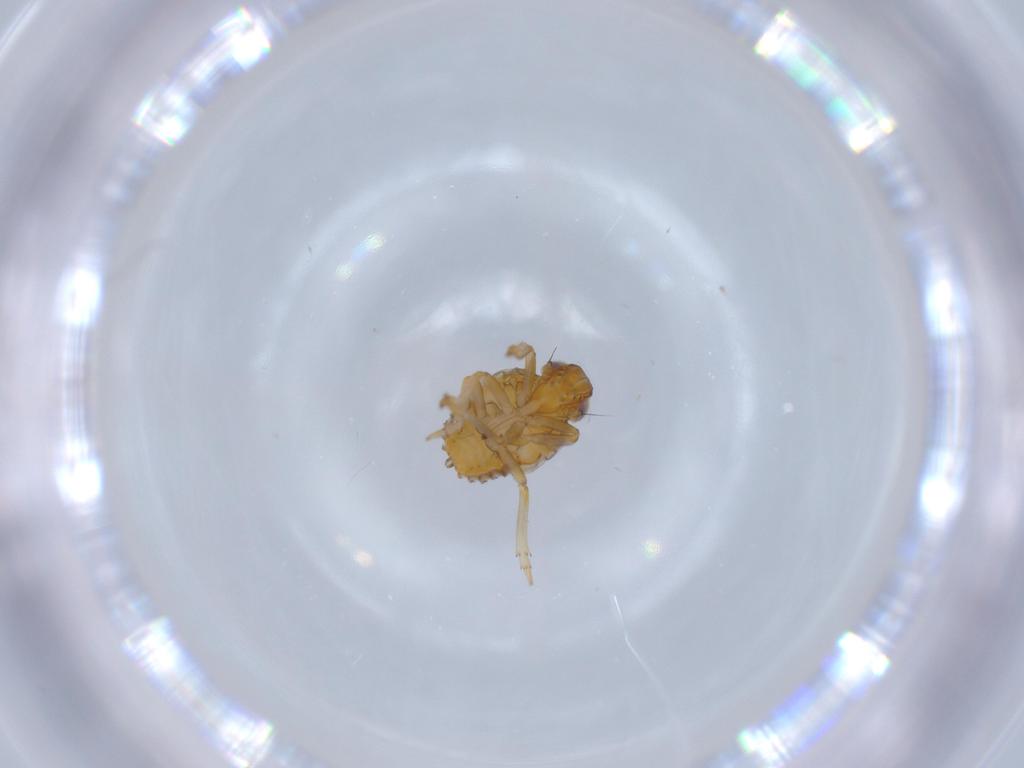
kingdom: Animalia
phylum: Arthropoda
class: Insecta
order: Hemiptera
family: Issidae
